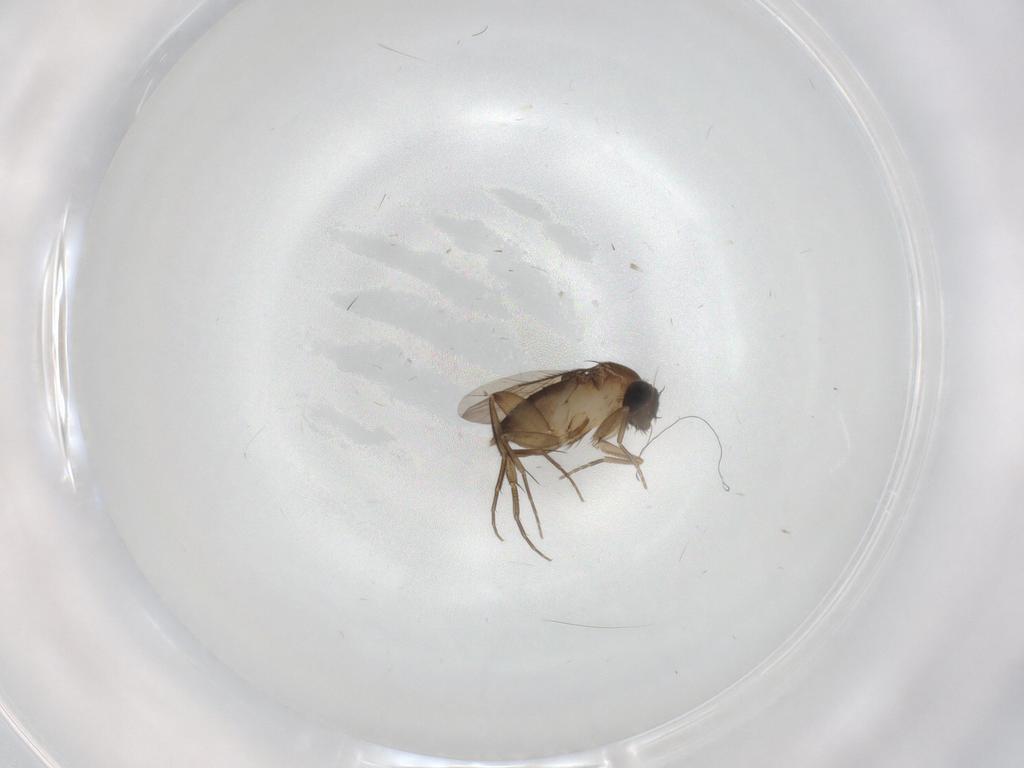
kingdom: Animalia
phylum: Arthropoda
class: Insecta
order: Diptera
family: Phoridae
